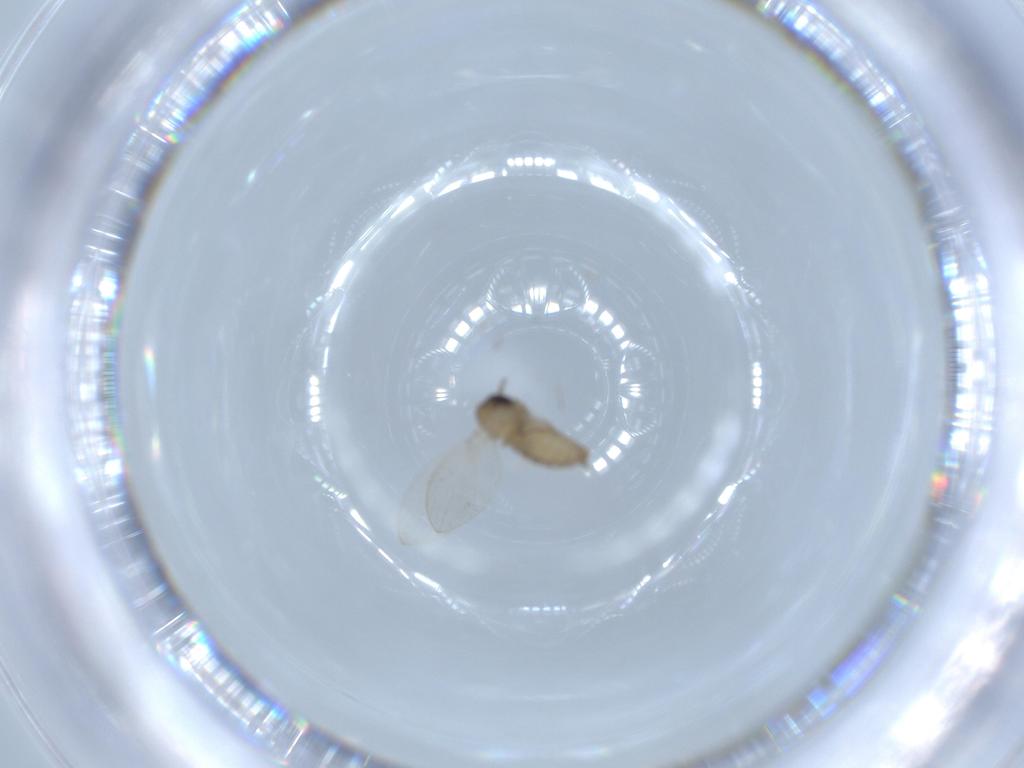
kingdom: Animalia
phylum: Arthropoda
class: Insecta
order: Diptera
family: Psychodidae
